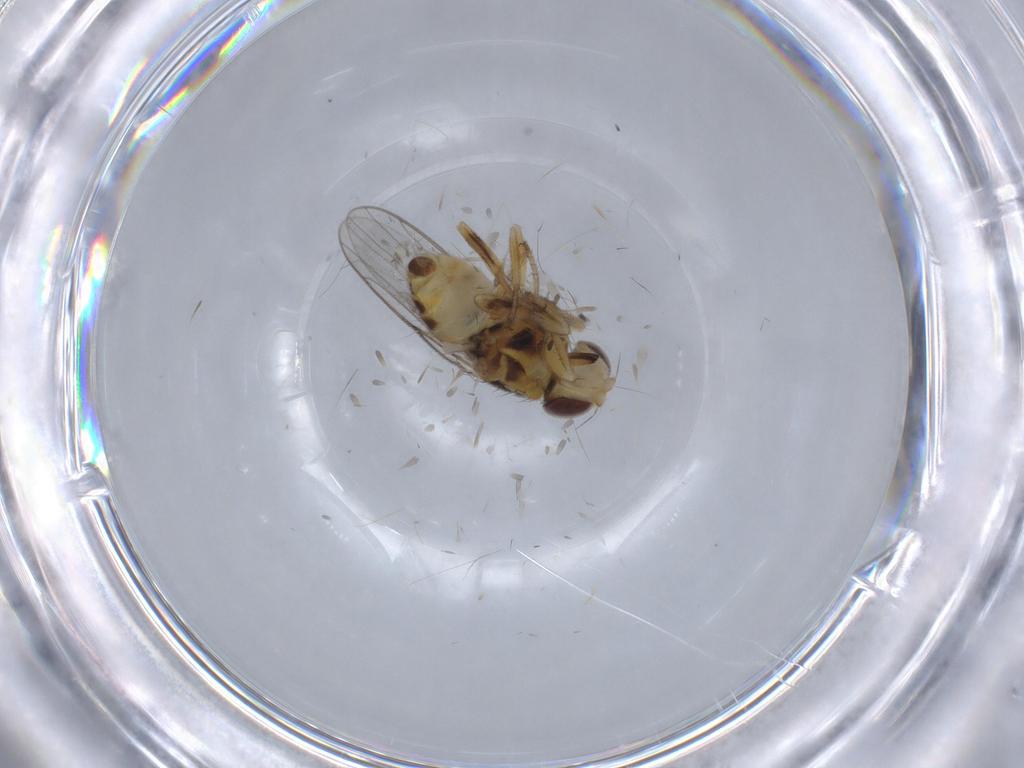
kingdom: Animalia
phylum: Arthropoda
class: Insecta
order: Diptera
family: Chloropidae
